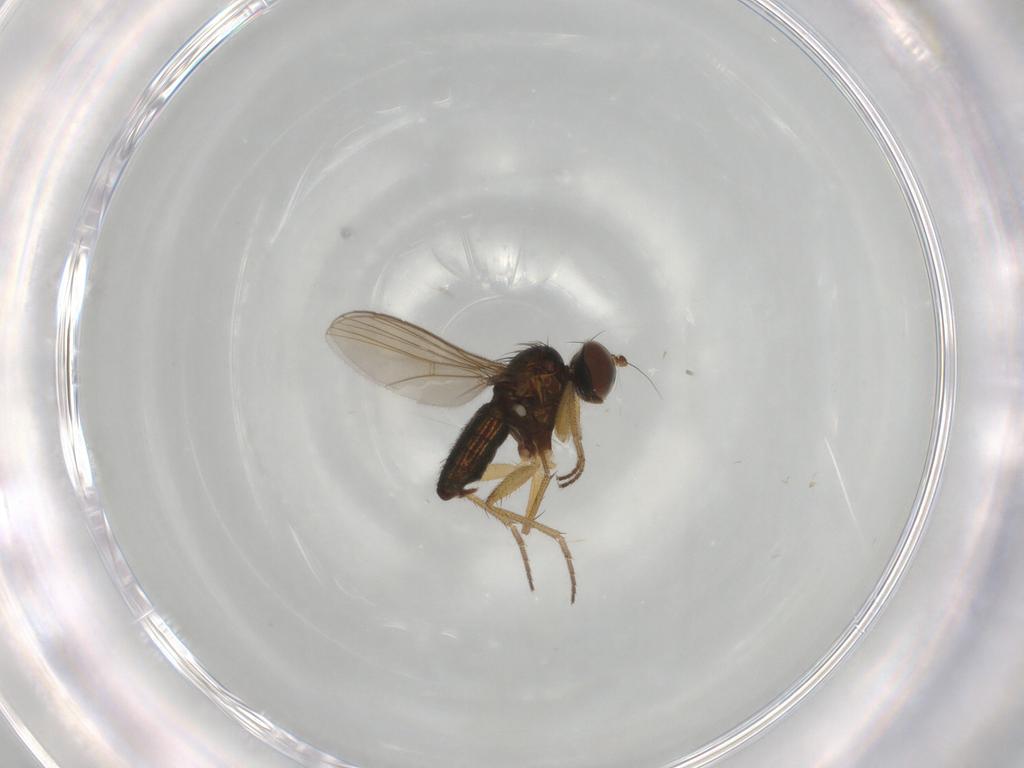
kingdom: Animalia
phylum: Arthropoda
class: Insecta
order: Diptera
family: Dolichopodidae
